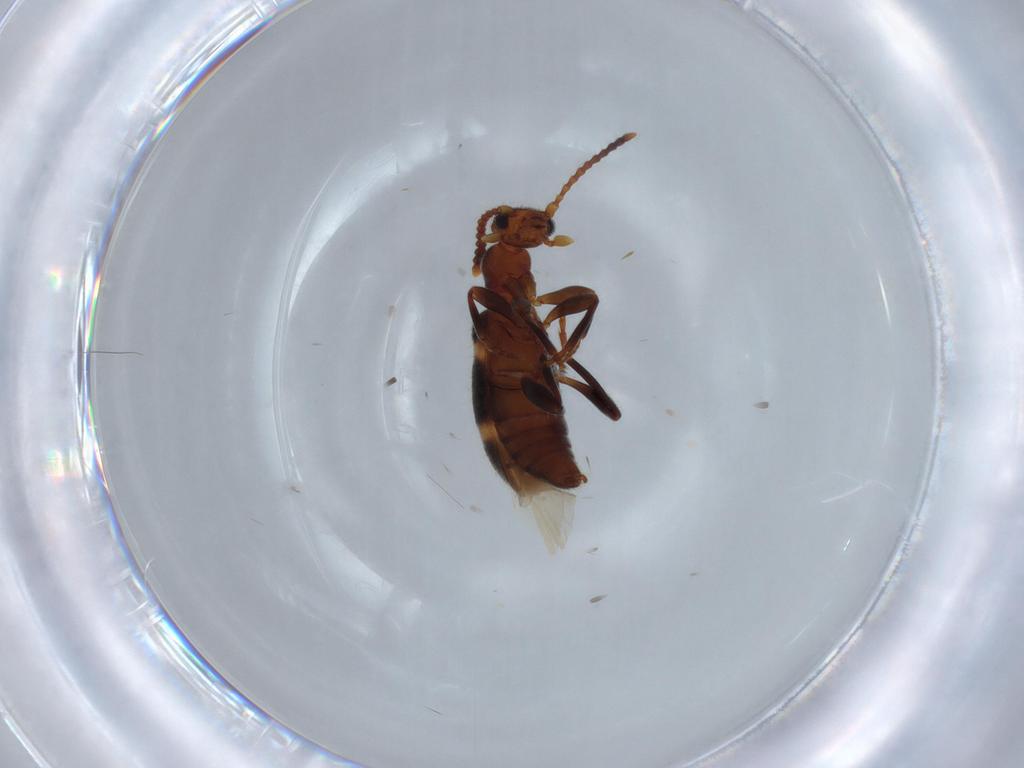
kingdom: Animalia
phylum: Arthropoda
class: Insecta
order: Coleoptera
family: Anthicidae
